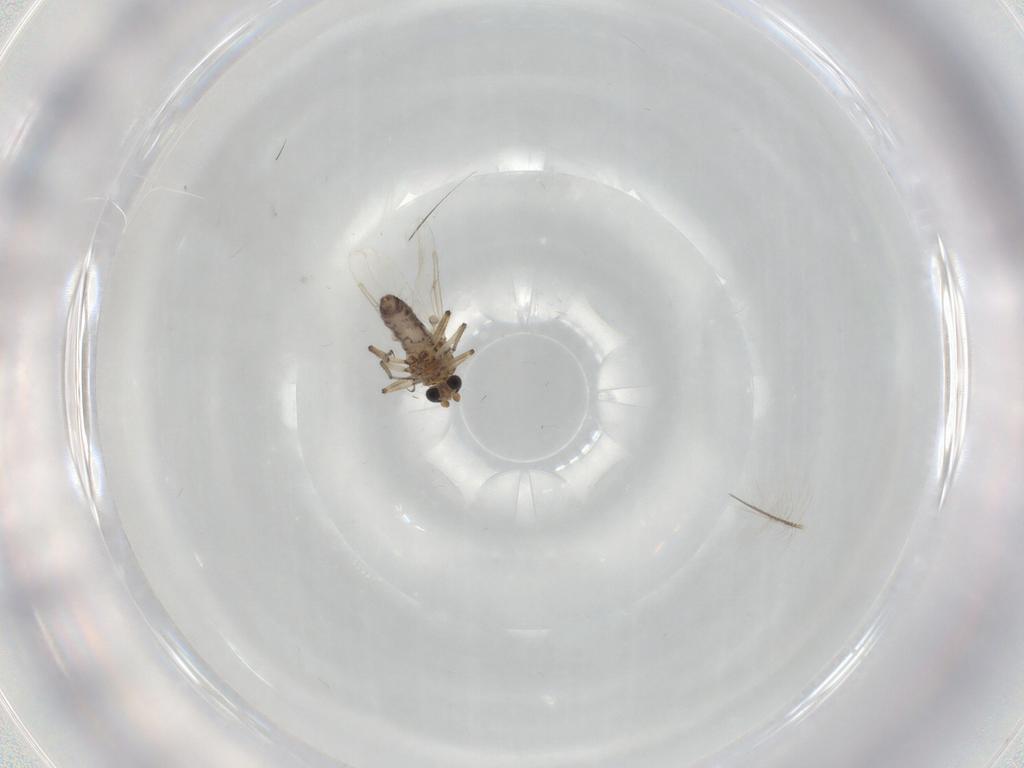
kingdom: Animalia
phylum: Arthropoda
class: Insecta
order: Diptera
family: Ceratopogonidae
